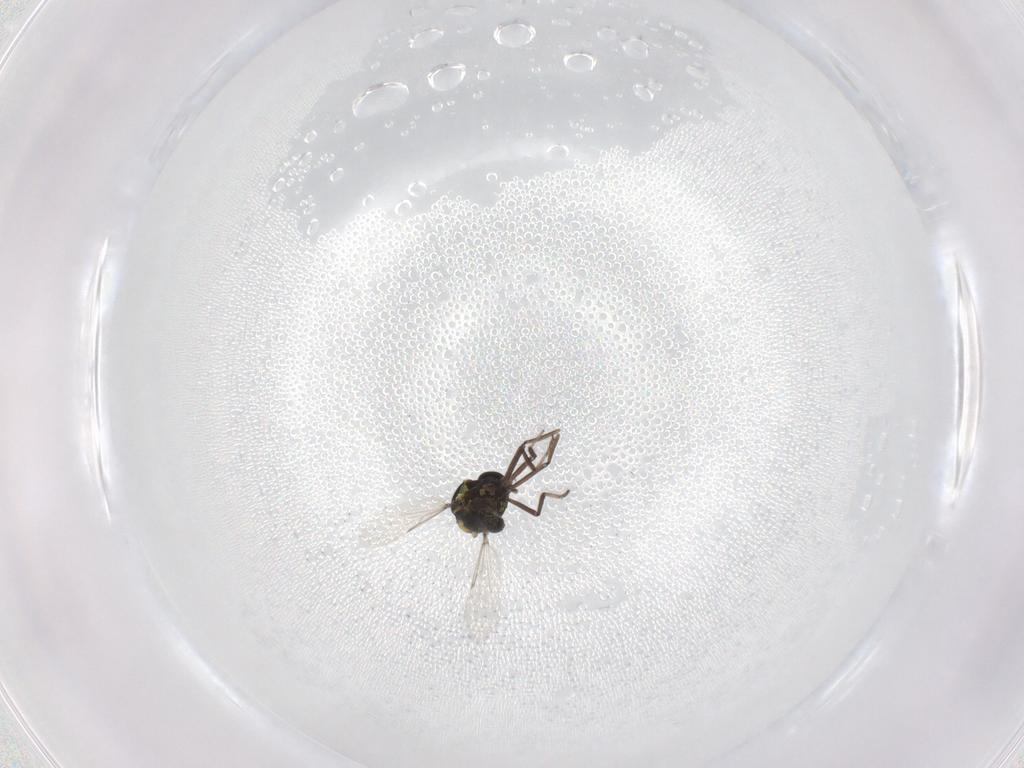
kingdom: Animalia
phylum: Arthropoda
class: Insecta
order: Diptera
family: Ceratopogonidae
